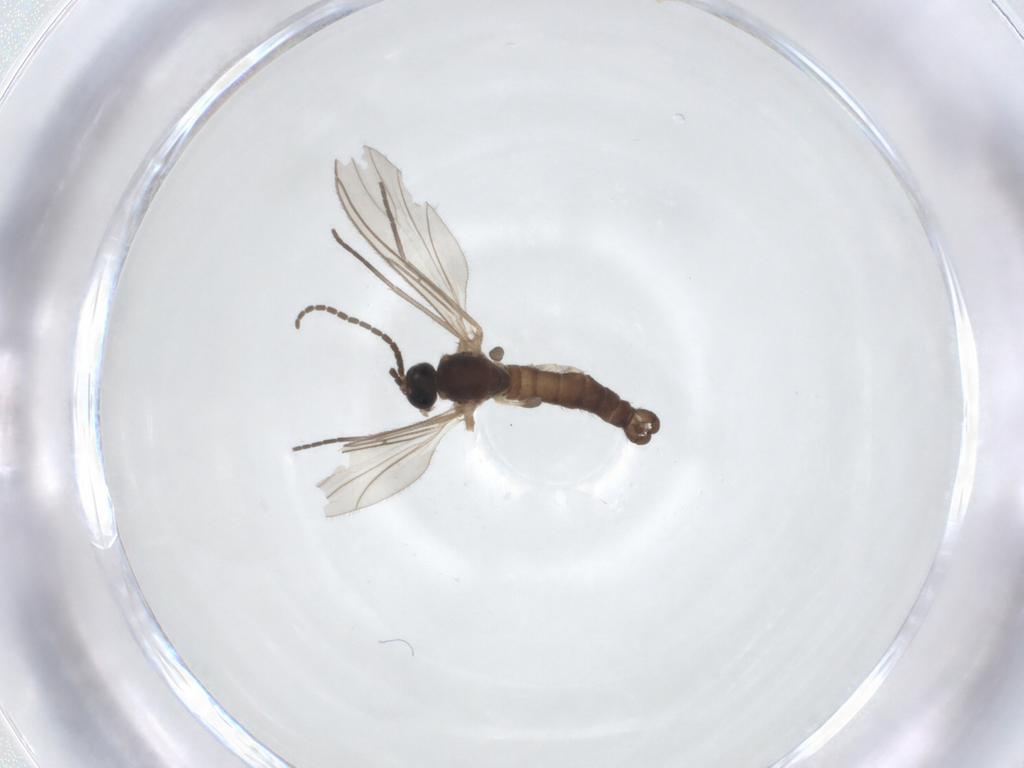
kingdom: Animalia
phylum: Arthropoda
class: Insecta
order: Diptera
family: Sciaridae
